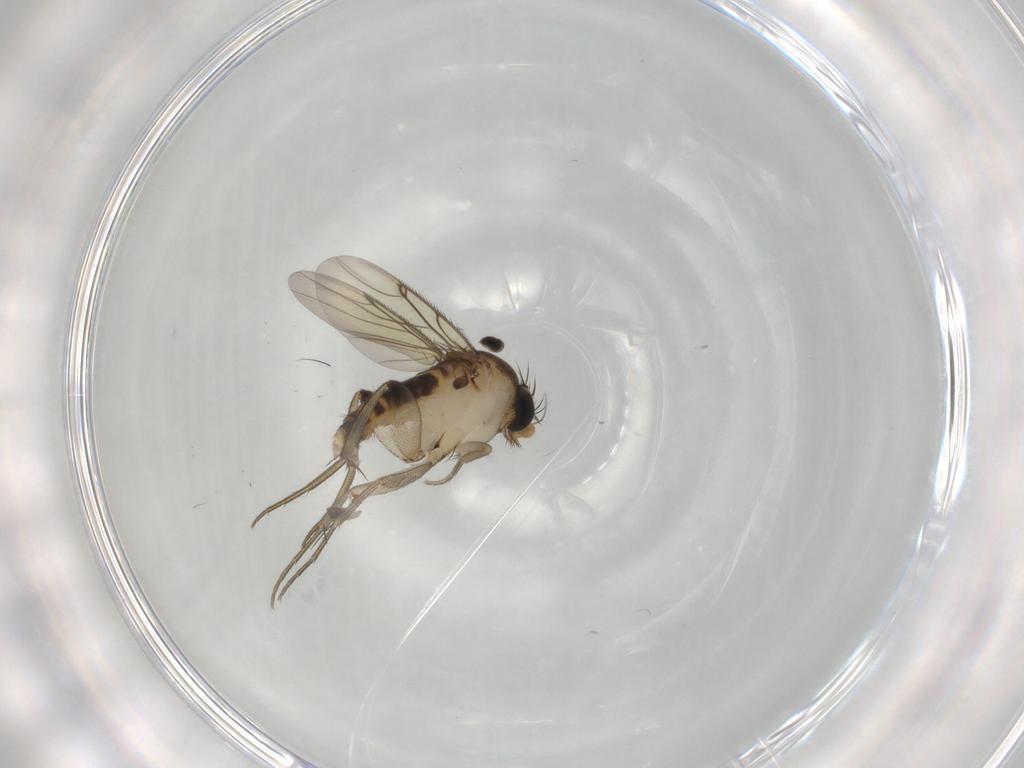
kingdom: Animalia
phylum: Arthropoda
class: Insecta
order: Diptera
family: Phoridae
